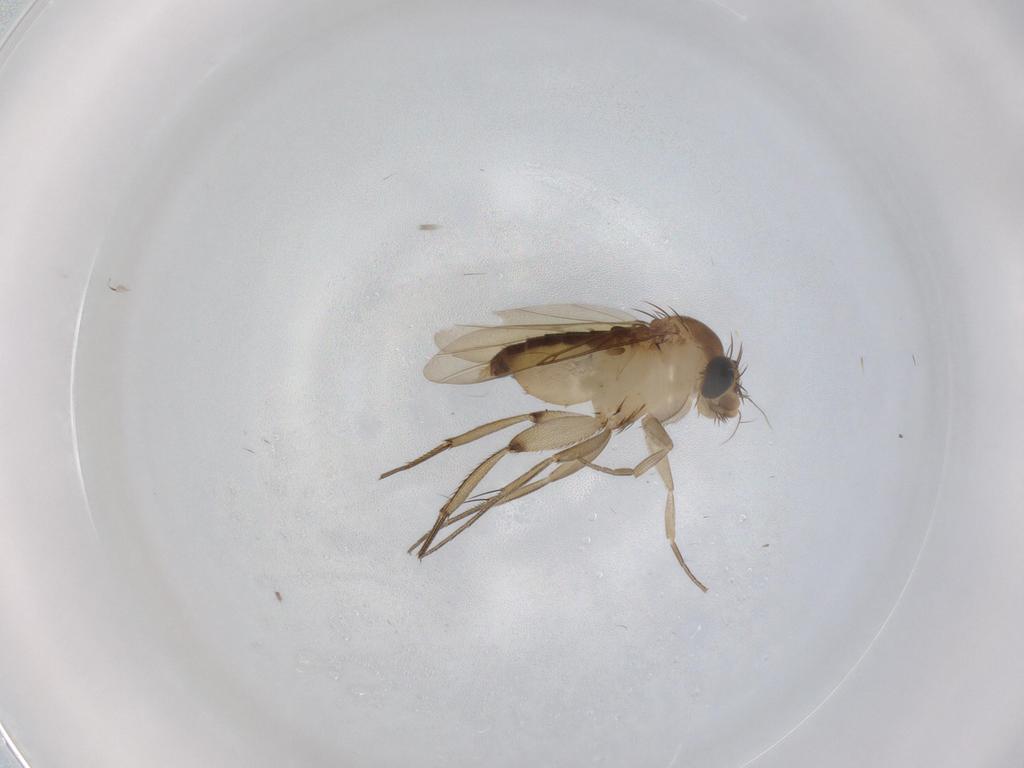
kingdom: Animalia
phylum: Arthropoda
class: Insecta
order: Diptera
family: Phoridae
